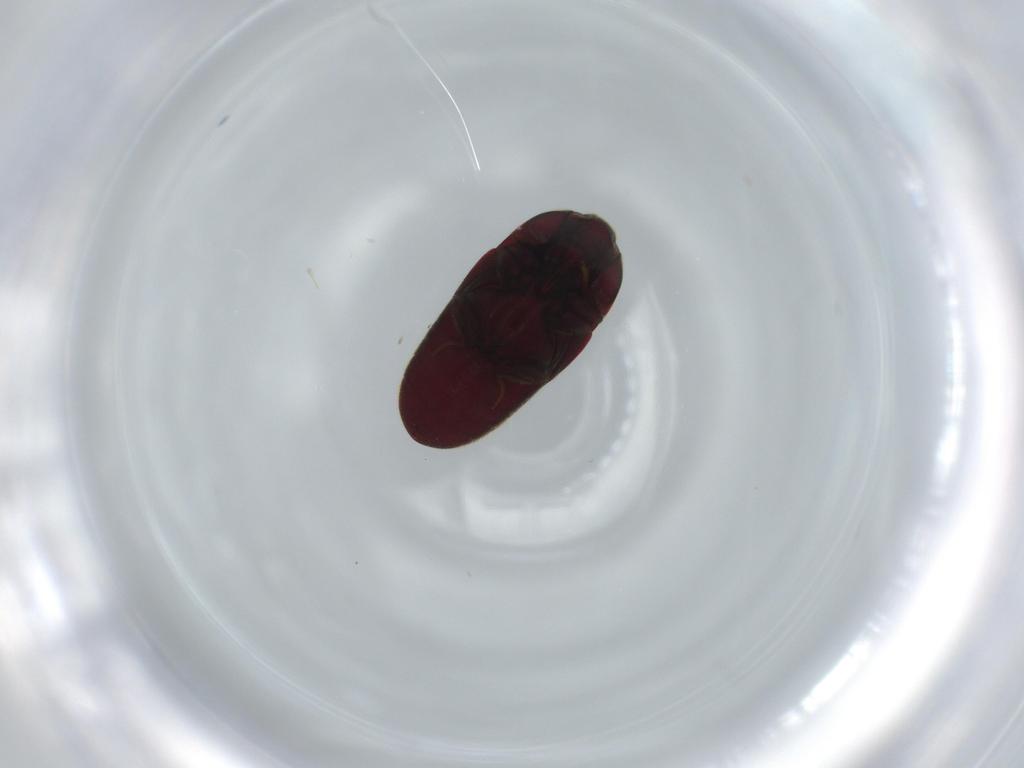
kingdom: Animalia
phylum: Arthropoda
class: Insecta
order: Coleoptera
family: Throscidae
